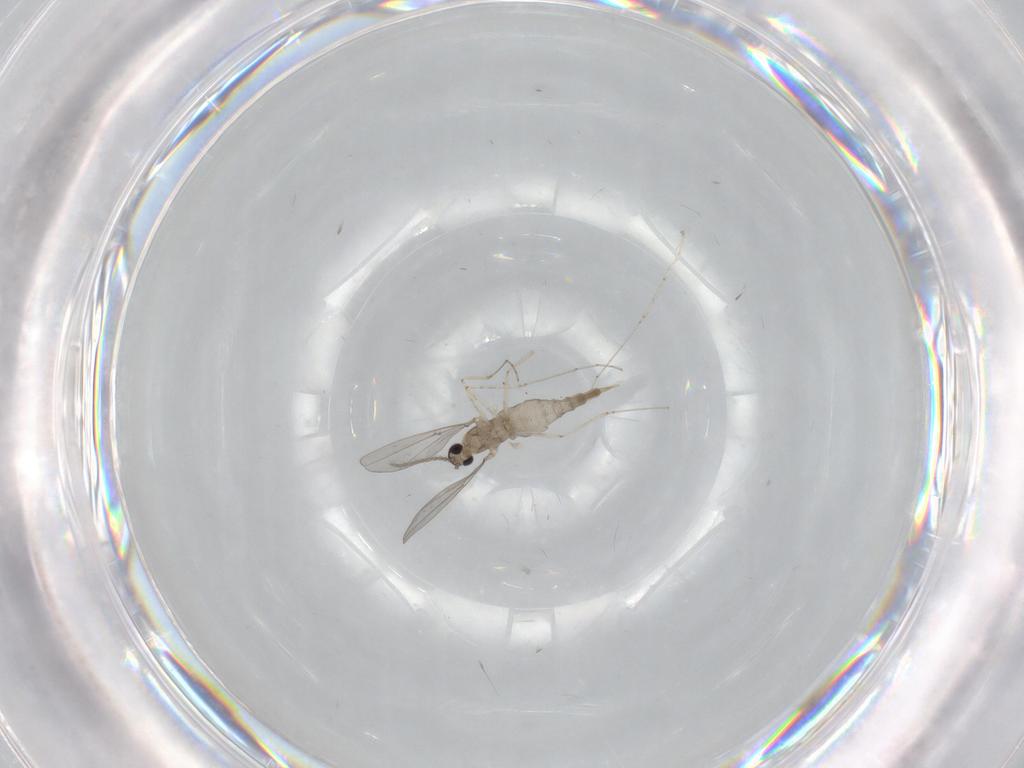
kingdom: Animalia
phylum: Arthropoda
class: Insecta
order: Diptera
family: Cecidomyiidae
